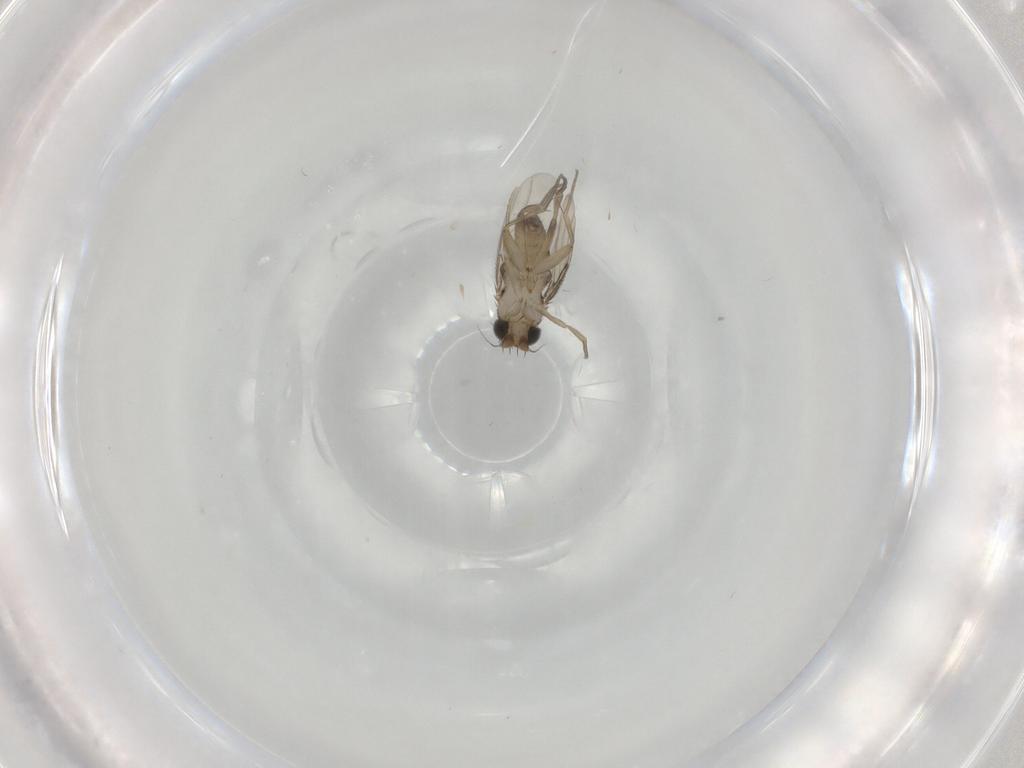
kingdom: Animalia
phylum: Arthropoda
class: Insecta
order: Diptera
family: Phoridae
